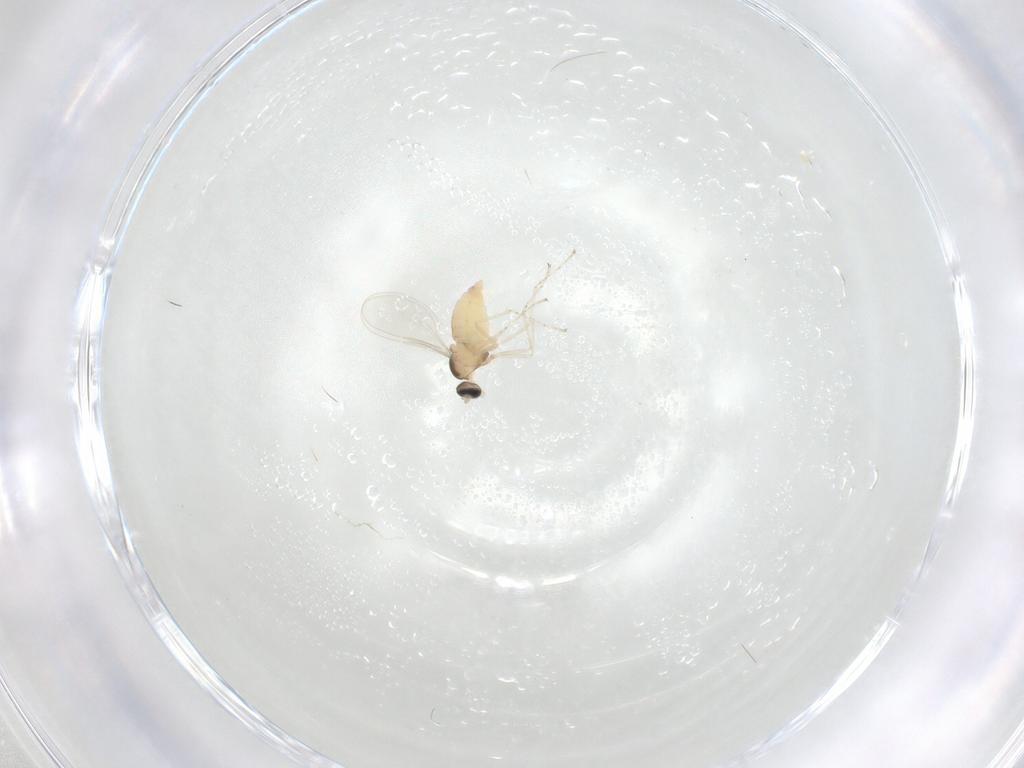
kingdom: Animalia
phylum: Arthropoda
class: Insecta
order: Diptera
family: Cecidomyiidae
